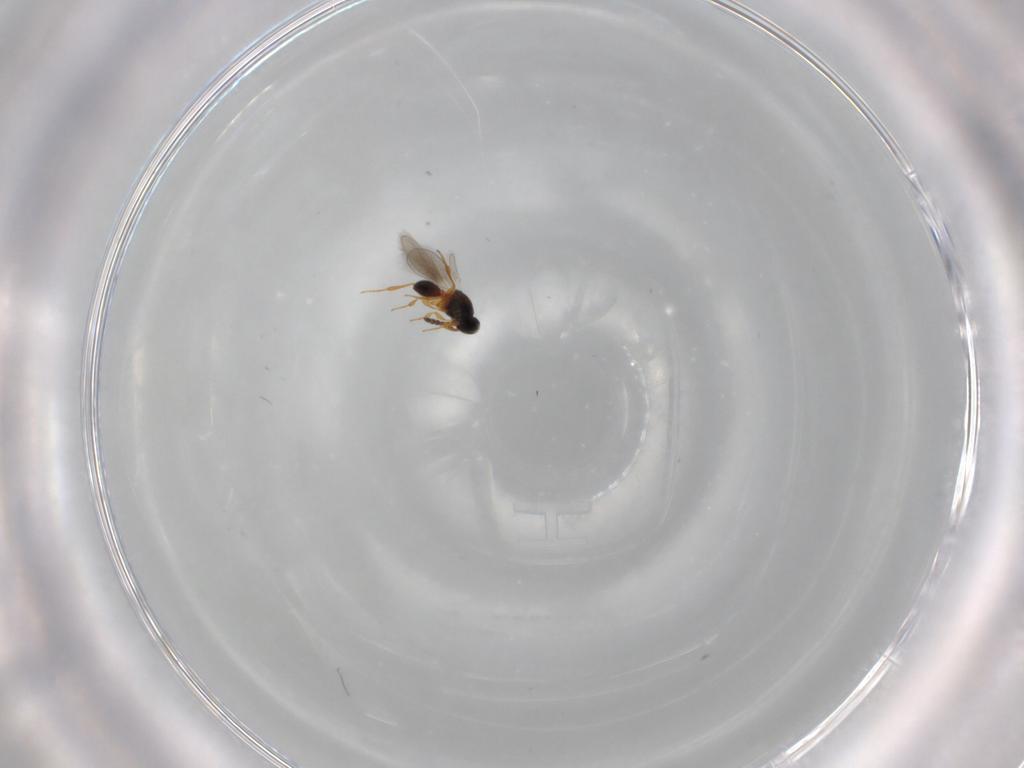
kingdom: Animalia
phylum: Arthropoda
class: Insecta
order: Hymenoptera
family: Platygastridae
